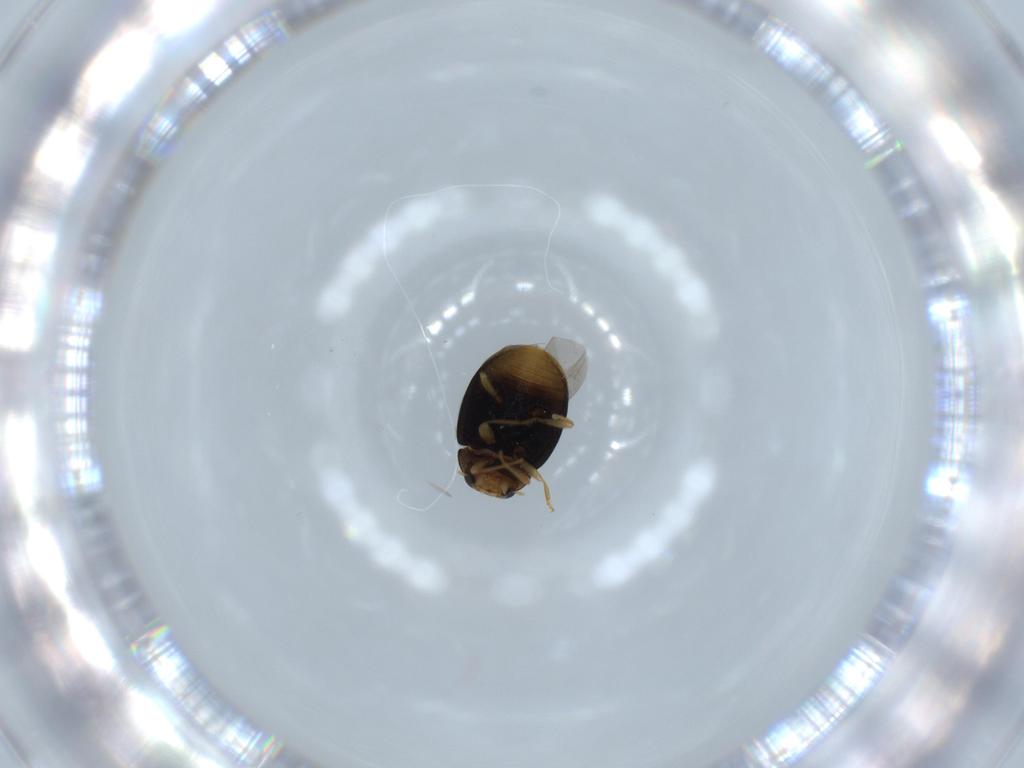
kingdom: Animalia
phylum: Arthropoda
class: Insecta
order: Coleoptera
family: Coccinellidae
